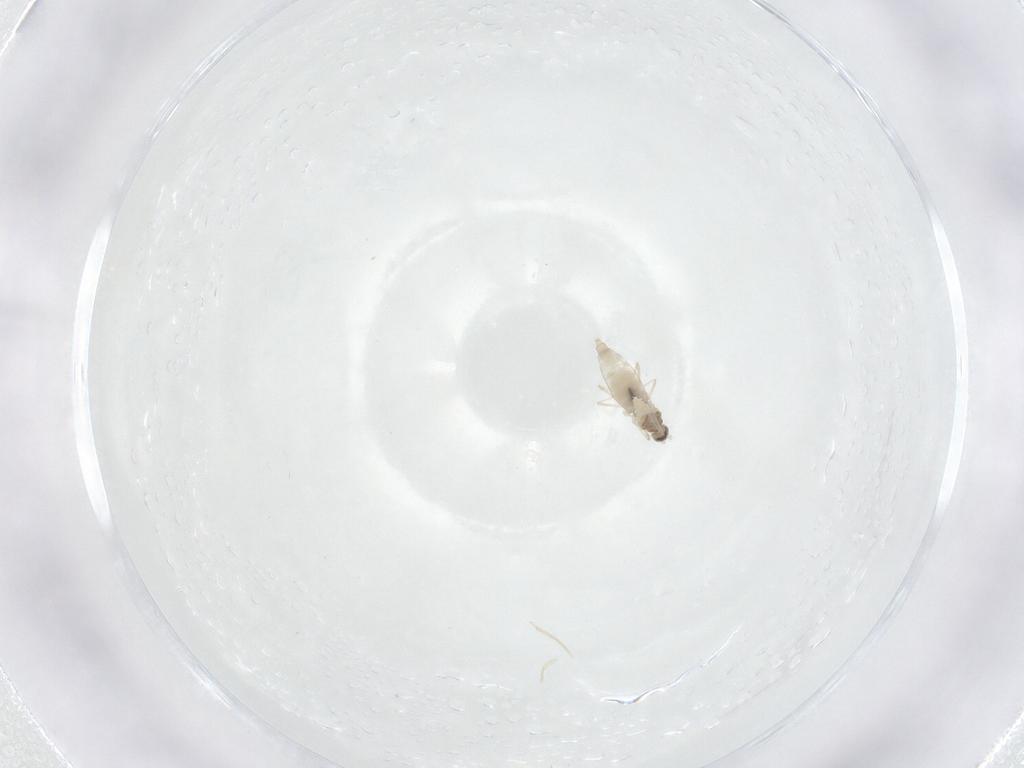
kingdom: Animalia
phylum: Arthropoda
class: Insecta
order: Diptera
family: Cecidomyiidae
